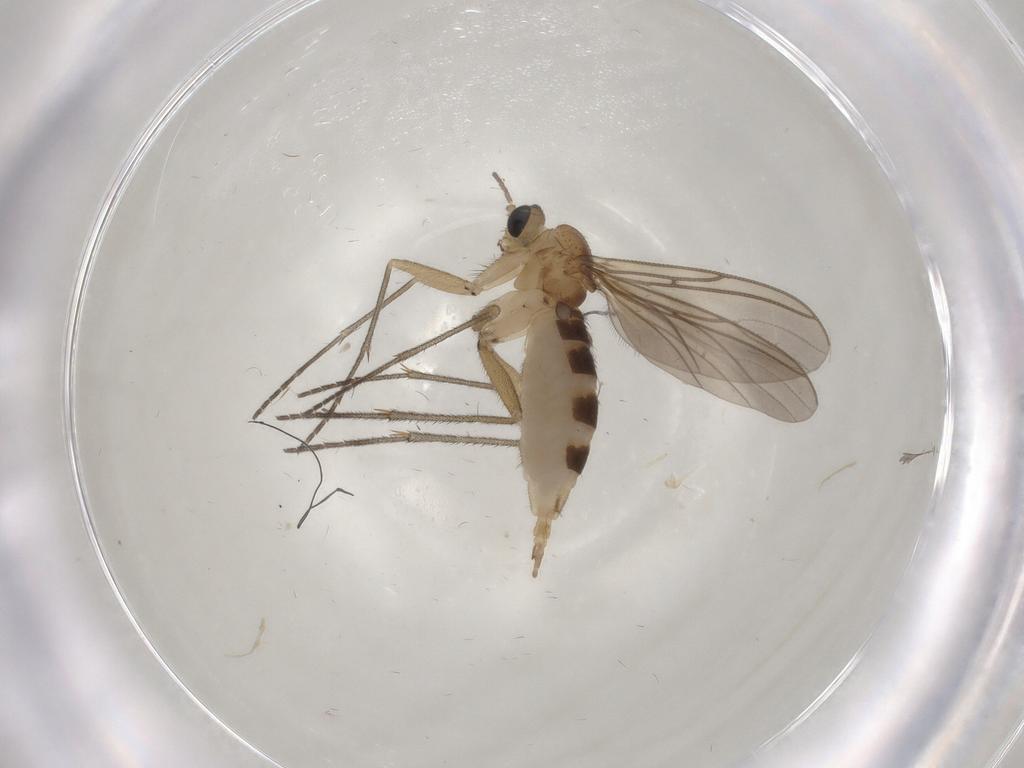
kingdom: Animalia
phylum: Arthropoda
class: Insecta
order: Diptera
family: Sciaridae
